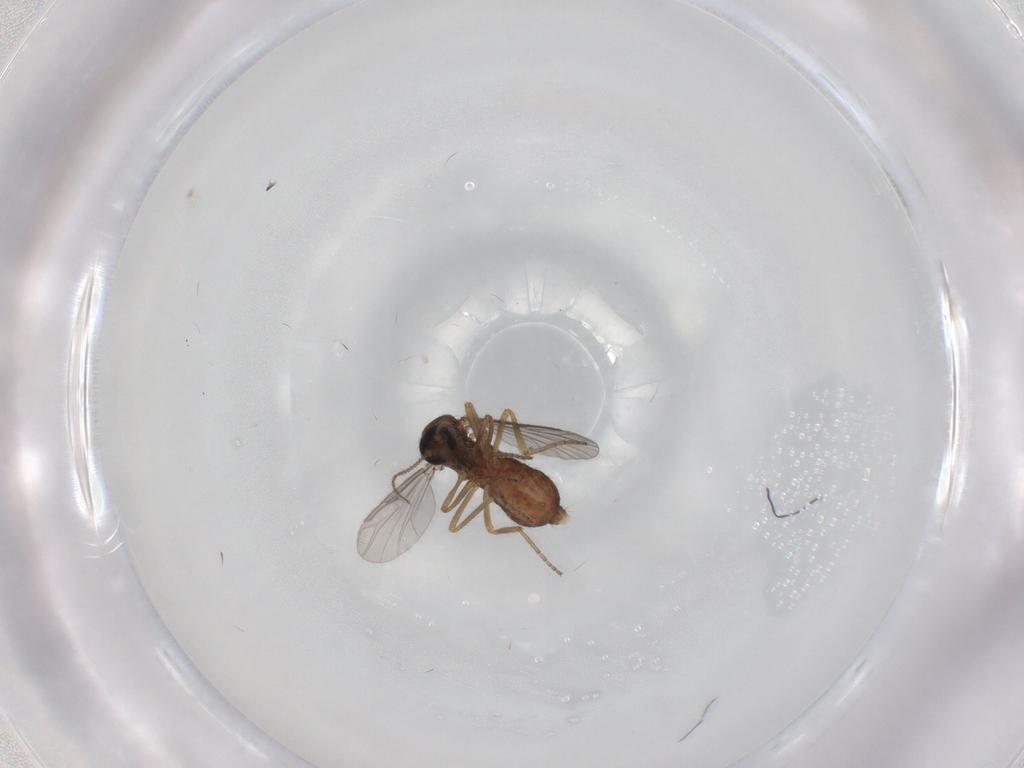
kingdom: Animalia
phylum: Arthropoda
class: Insecta
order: Diptera
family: Ceratopogonidae
